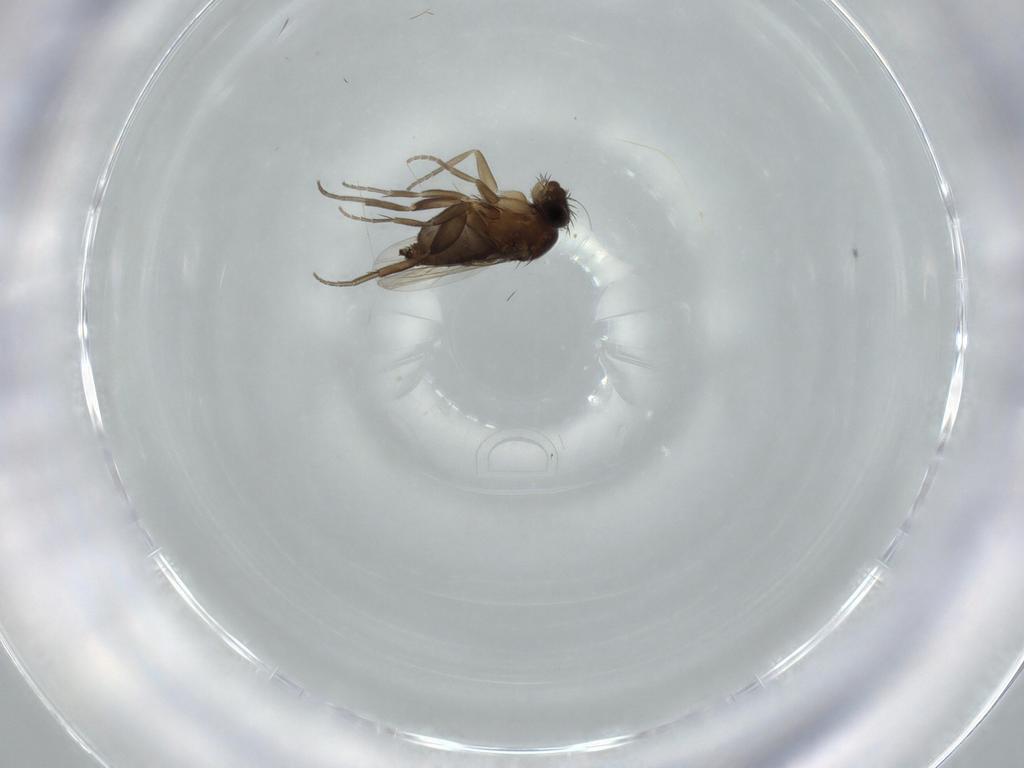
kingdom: Animalia
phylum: Arthropoda
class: Insecta
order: Diptera
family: Phoridae
